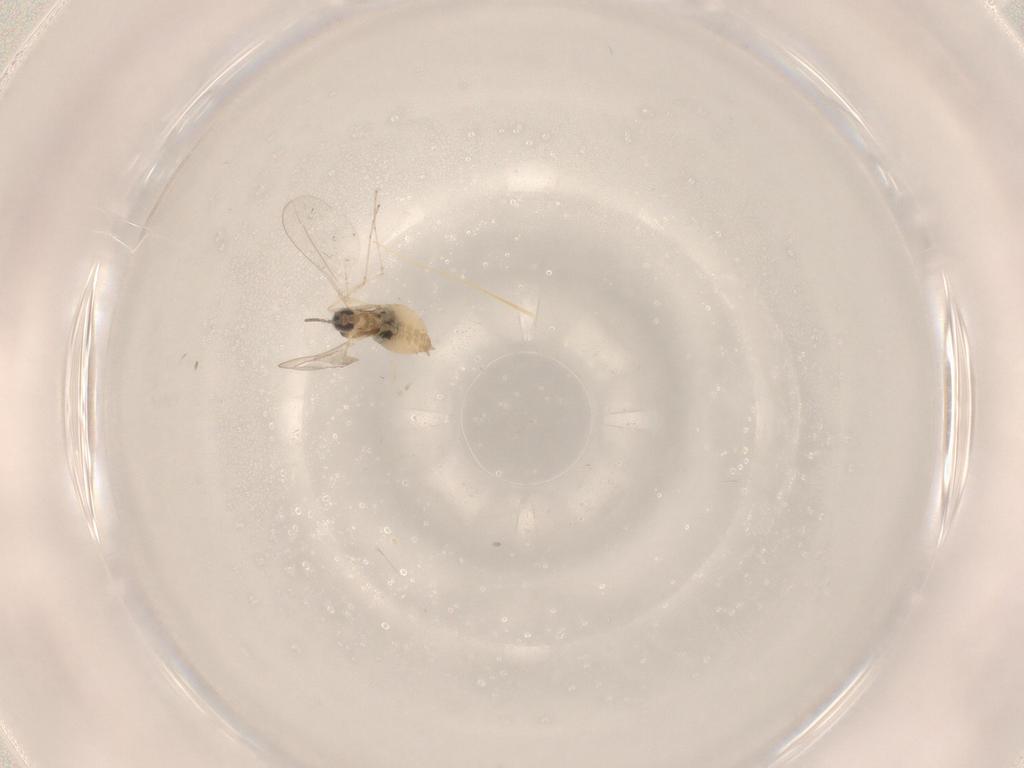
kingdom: Animalia
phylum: Arthropoda
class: Insecta
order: Diptera
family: Cecidomyiidae
